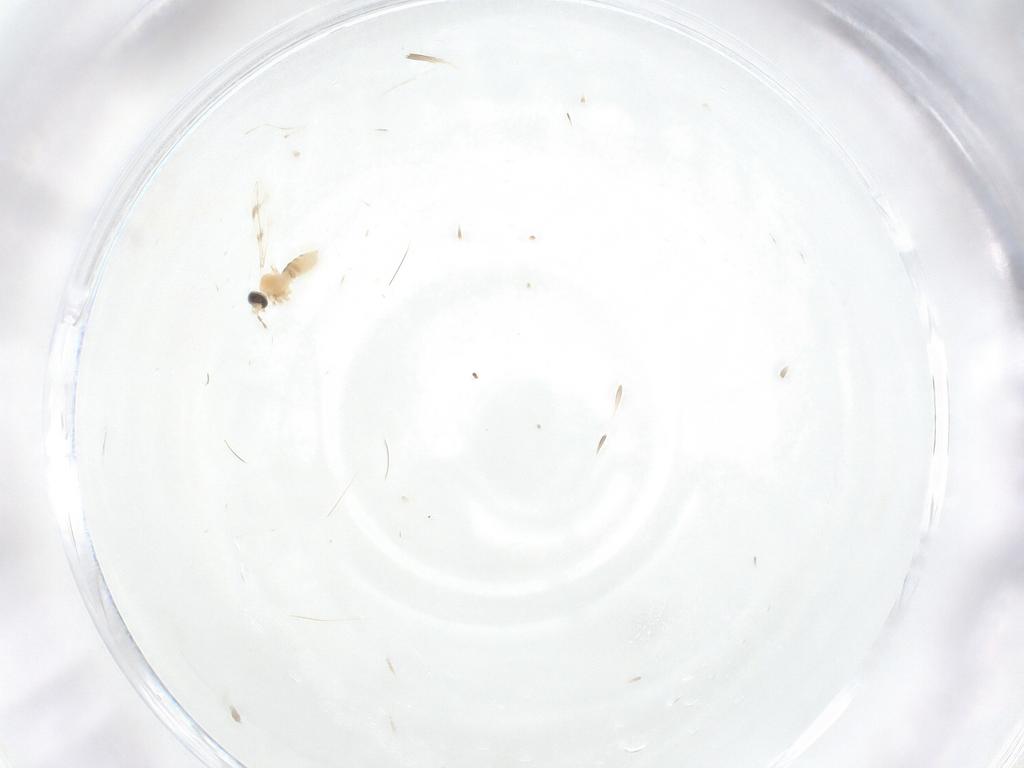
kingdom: Animalia
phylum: Arthropoda
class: Insecta
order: Diptera
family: Cecidomyiidae
